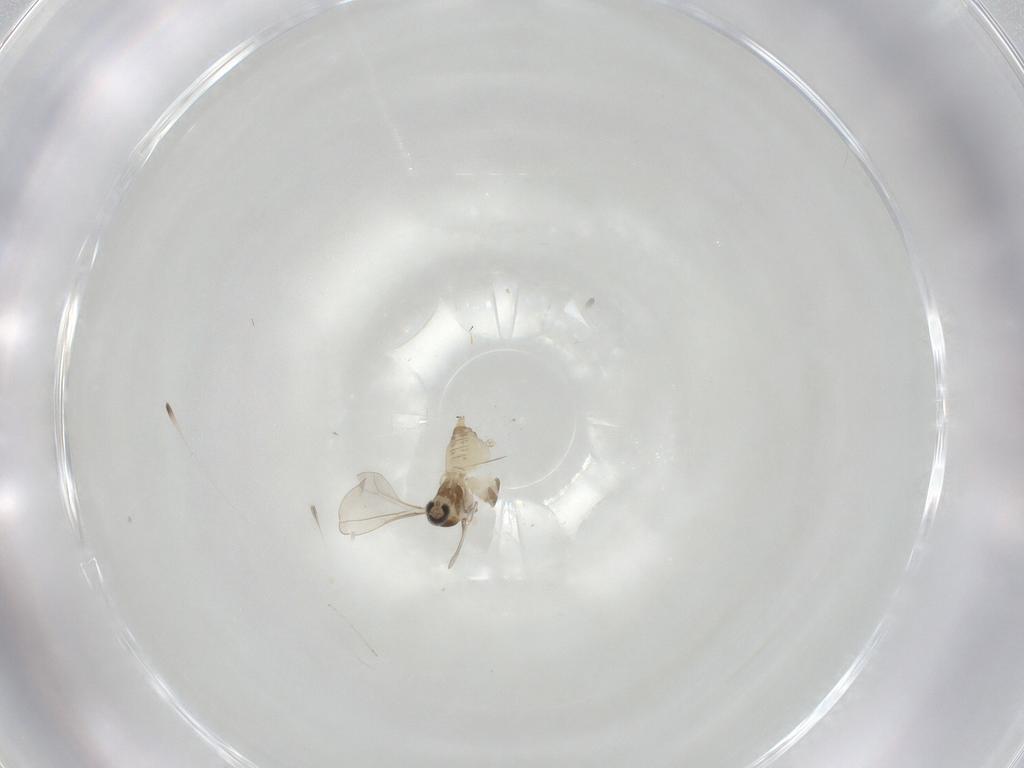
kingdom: Animalia
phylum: Arthropoda
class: Insecta
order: Diptera
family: Cecidomyiidae
